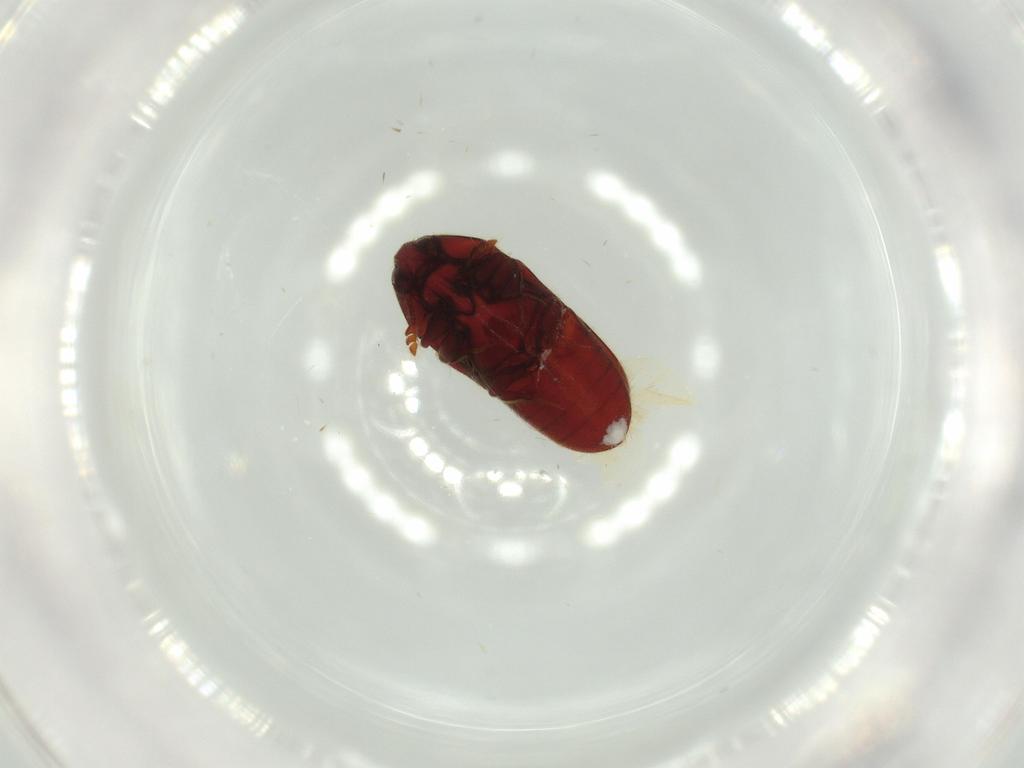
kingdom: Animalia
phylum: Arthropoda
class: Insecta
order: Coleoptera
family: Throscidae
